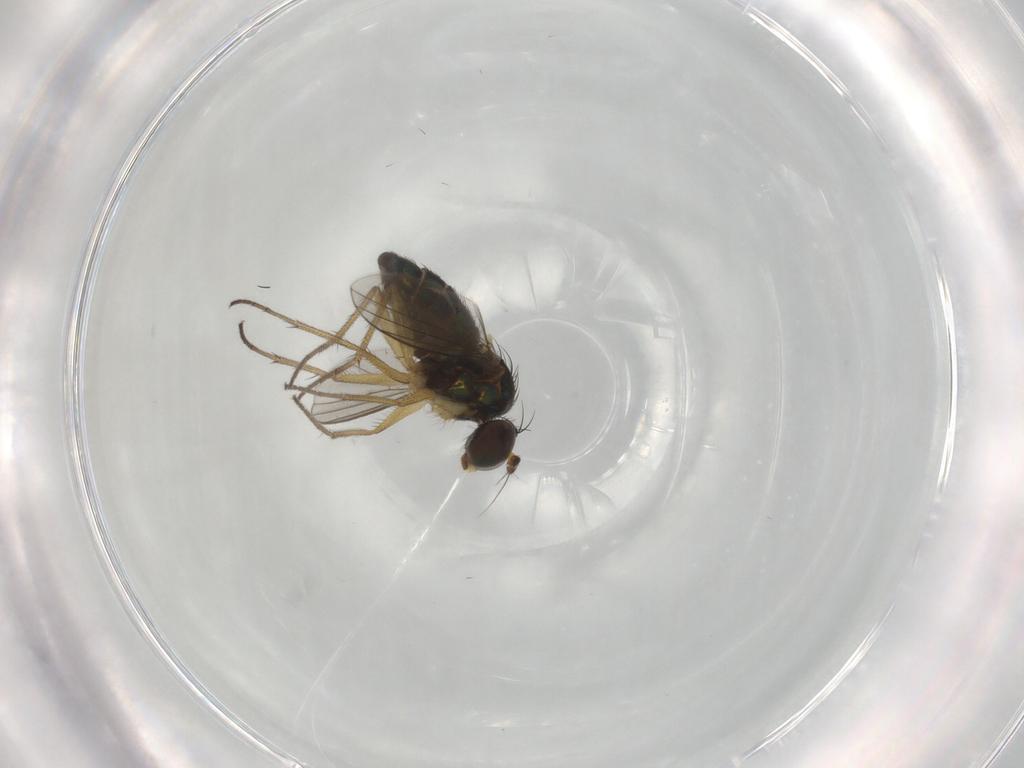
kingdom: Animalia
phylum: Arthropoda
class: Insecta
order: Diptera
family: Dolichopodidae
